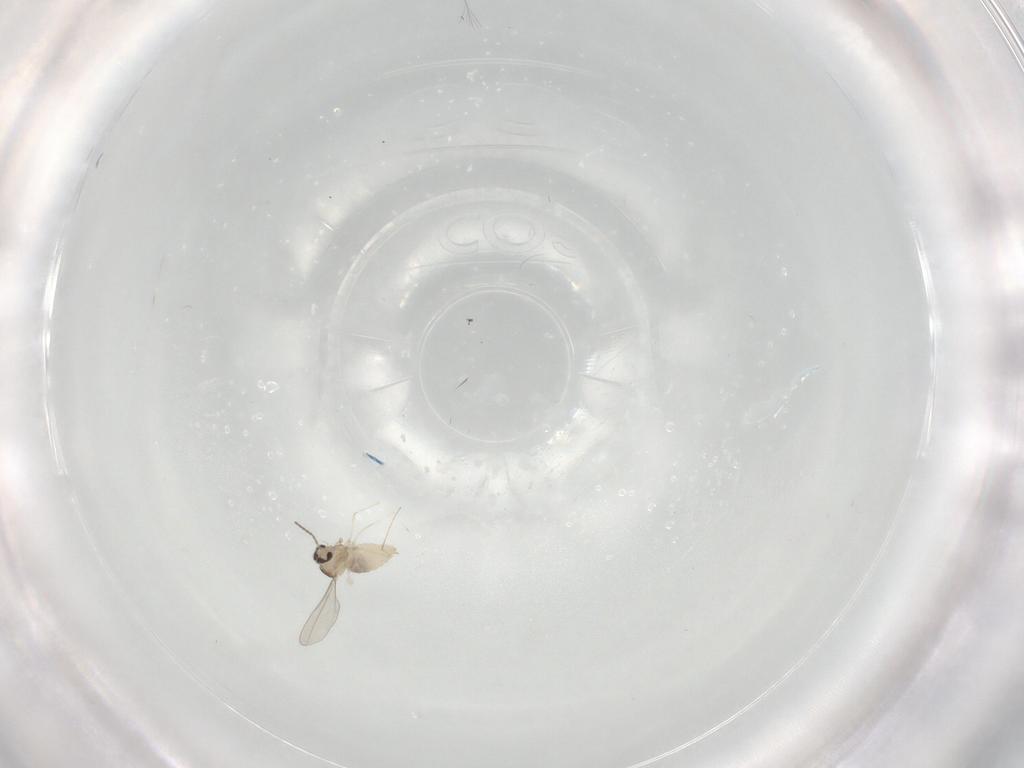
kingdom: Animalia
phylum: Arthropoda
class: Insecta
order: Diptera
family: Cecidomyiidae
